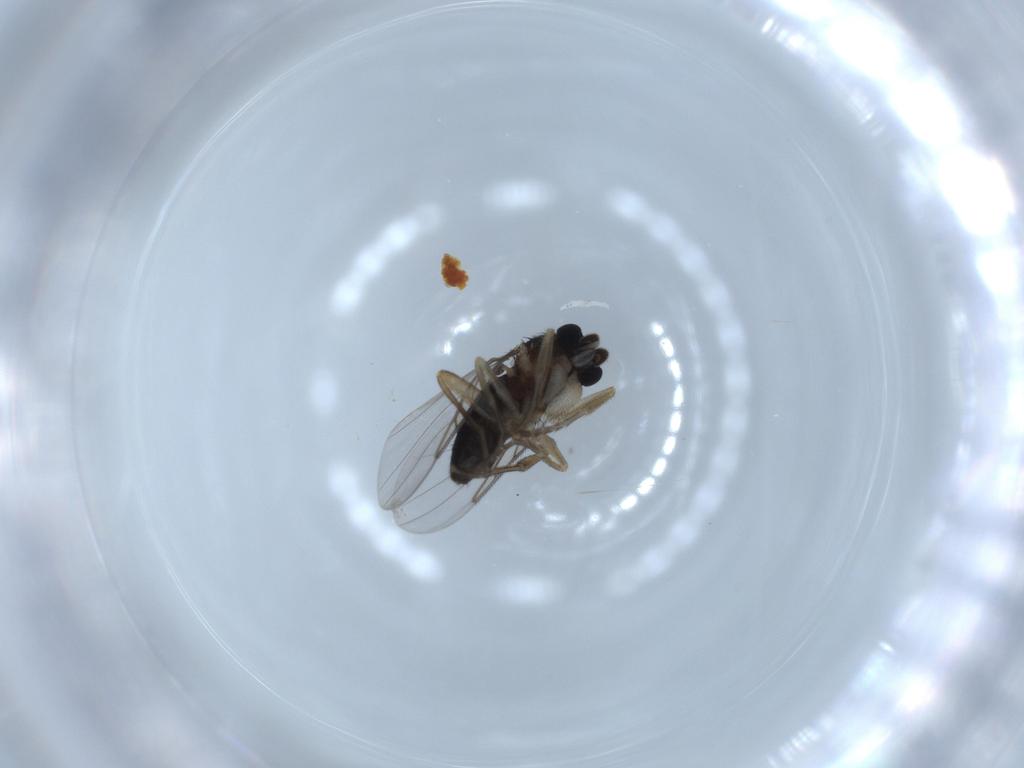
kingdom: Animalia
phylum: Arthropoda
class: Insecta
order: Diptera
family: Phoridae
